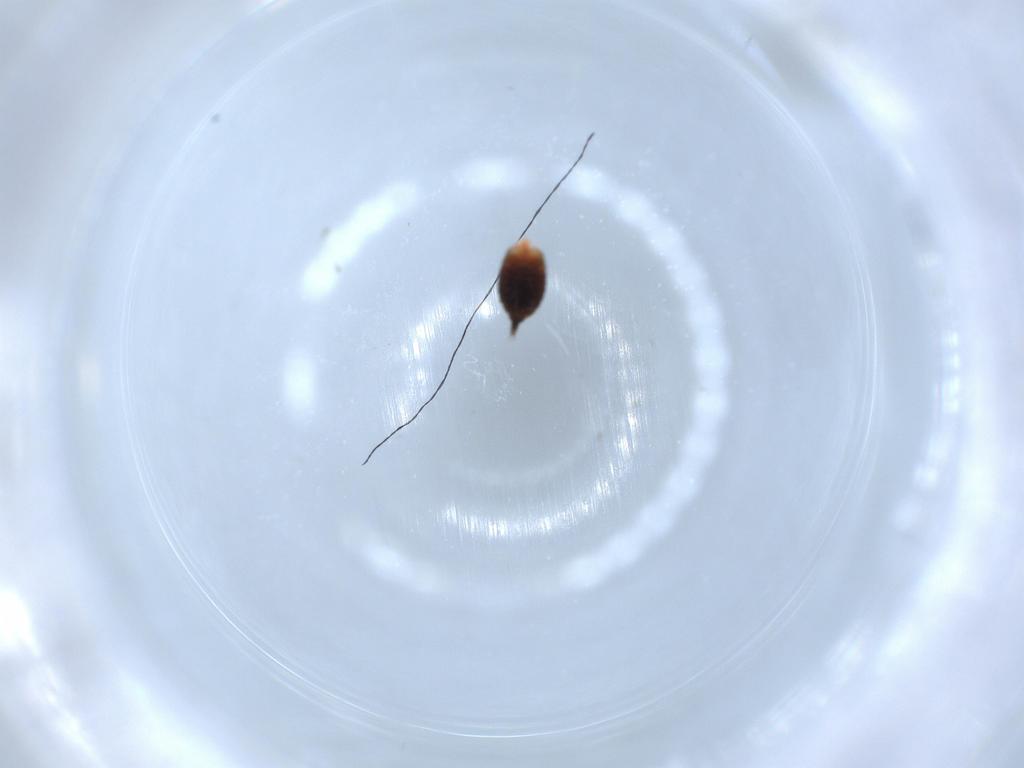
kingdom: Animalia
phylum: Arthropoda
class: Insecta
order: Thysanoptera
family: Phlaeothripidae
